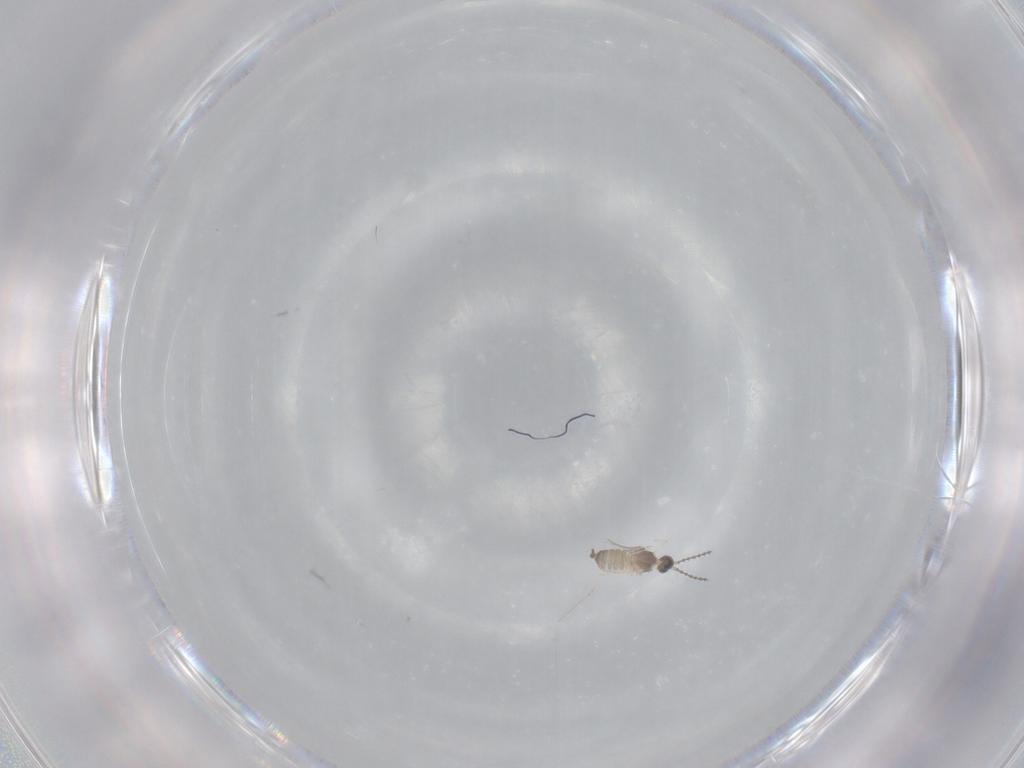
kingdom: Animalia
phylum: Arthropoda
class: Insecta
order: Diptera
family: Cecidomyiidae
